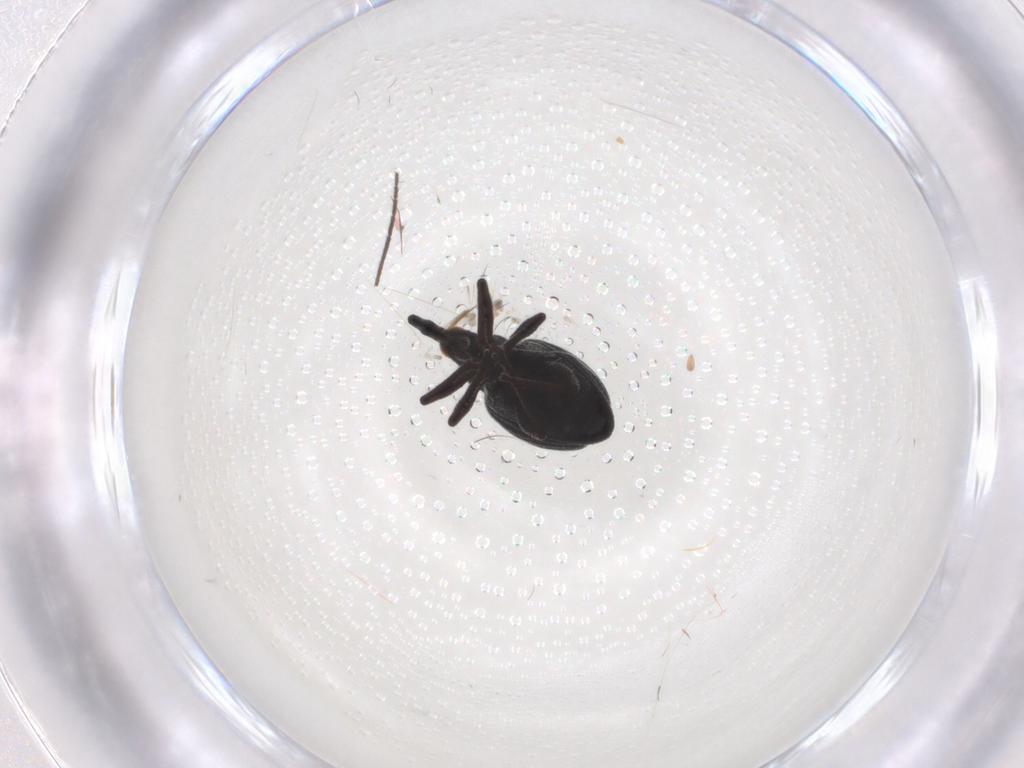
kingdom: Animalia
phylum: Arthropoda
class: Insecta
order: Coleoptera
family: Brentidae
